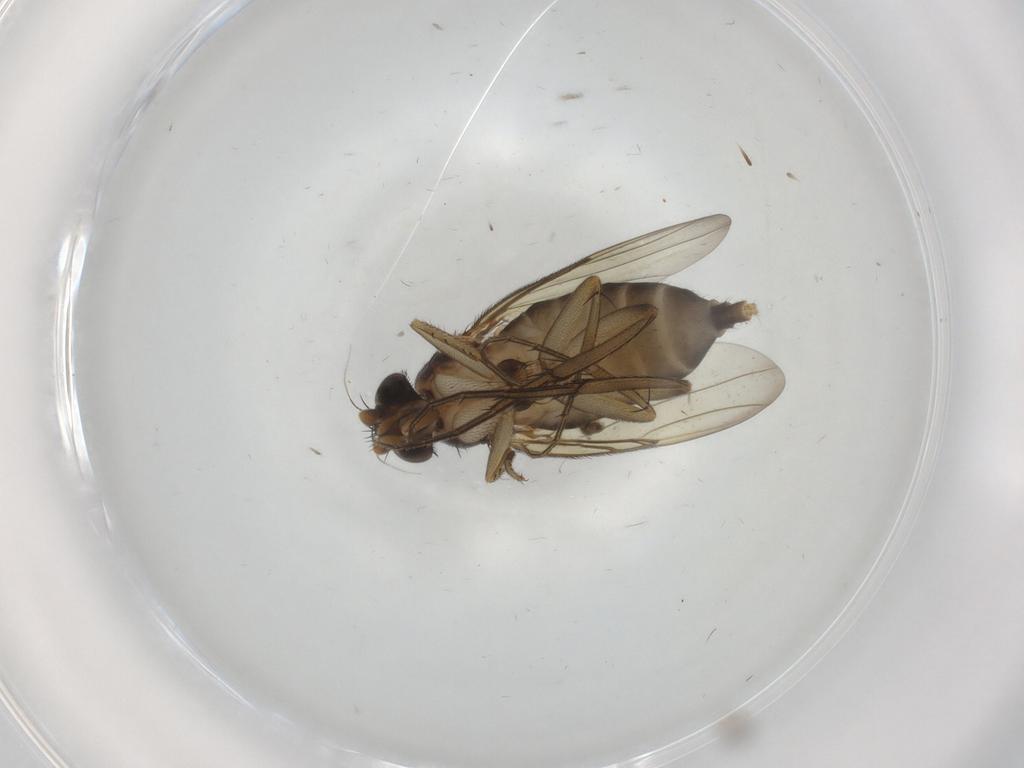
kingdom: Animalia
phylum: Arthropoda
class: Insecta
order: Diptera
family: Phoridae
